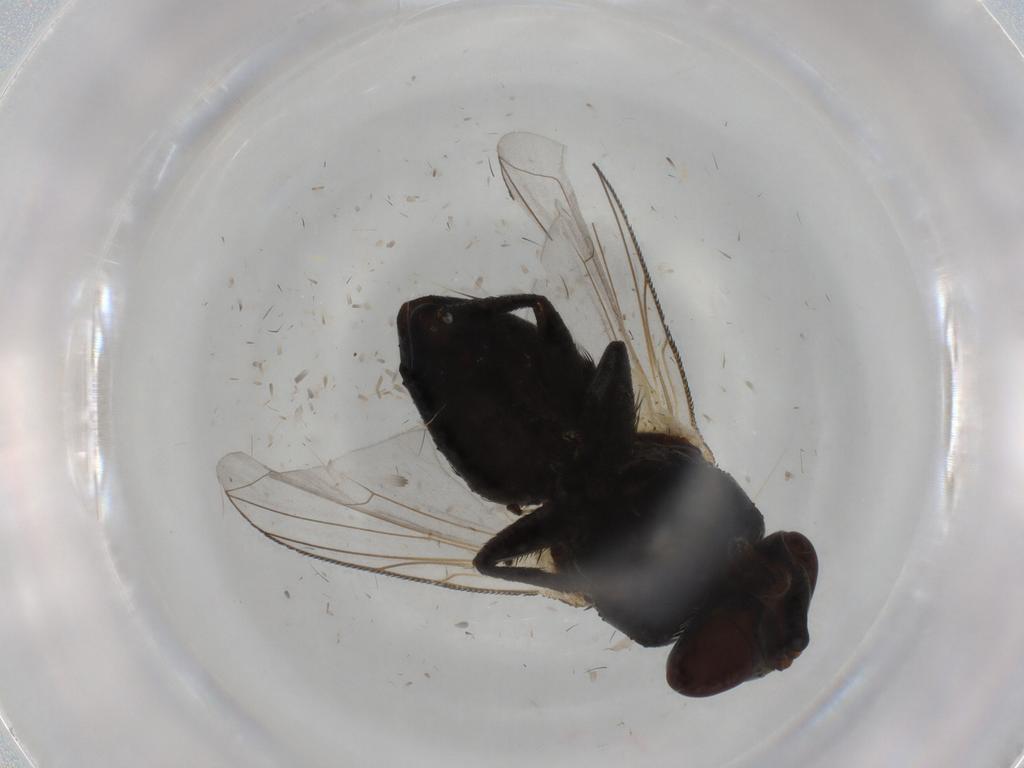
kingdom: Animalia
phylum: Arthropoda
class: Insecta
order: Diptera
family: Tachinidae
